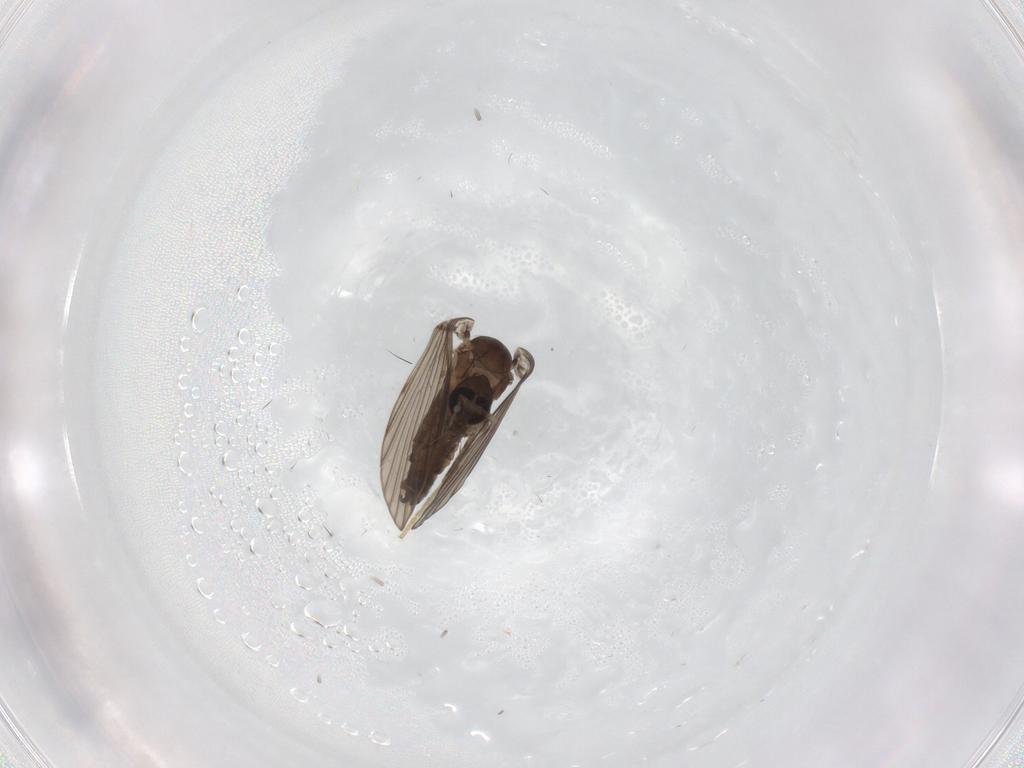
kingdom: Animalia
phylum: Arthropoda
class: Insecta
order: Diptera
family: Psychodidae
